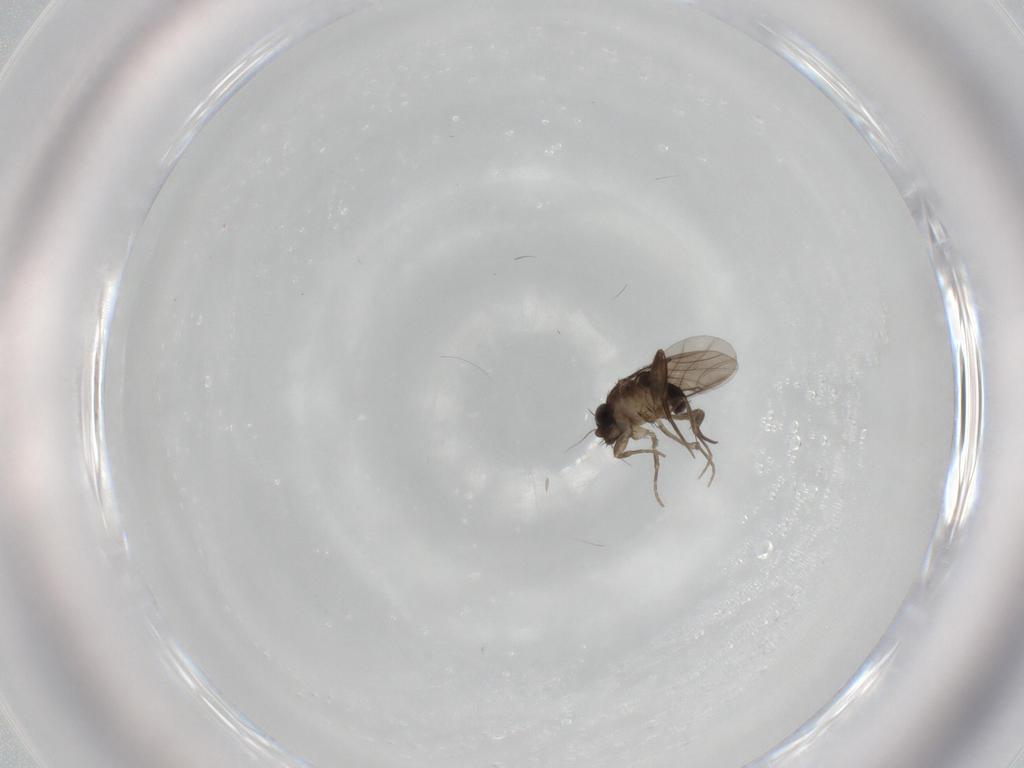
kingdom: Animalia
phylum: Arthropoda
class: Insecta
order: Diptera
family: Phoridae
